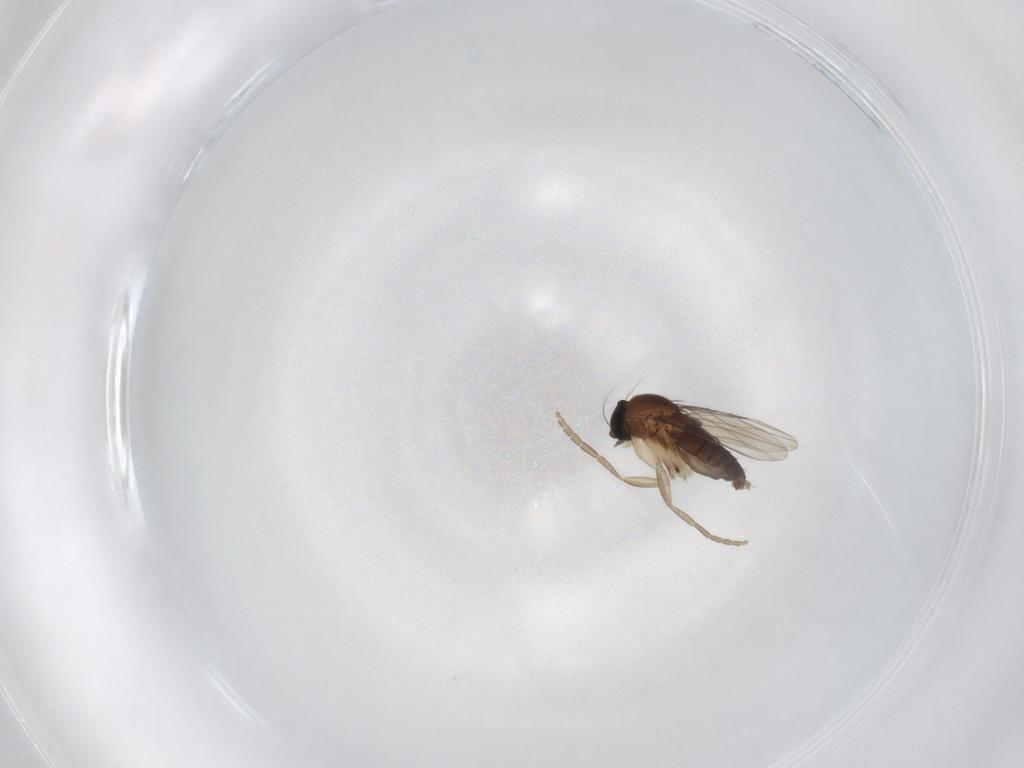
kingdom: Animalia
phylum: Arthropoda
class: Insecta
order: Diptera
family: Phoridae
